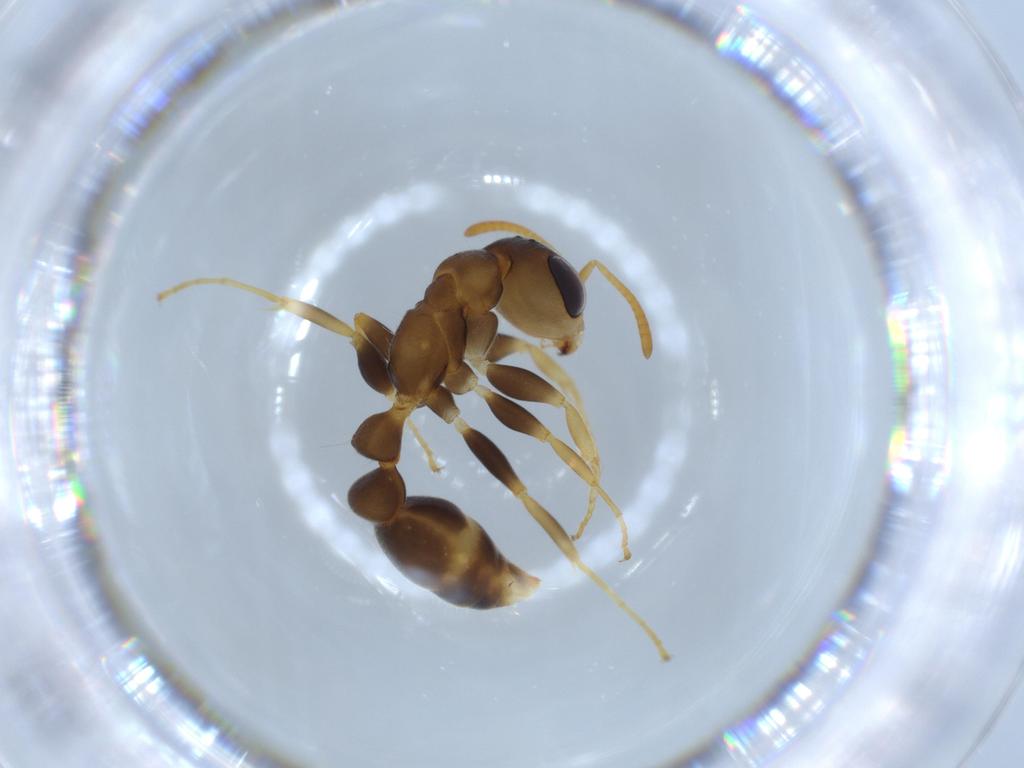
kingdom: Animalia
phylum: Arthropoda
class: Insecta
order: Hymenoptera
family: Formicidae
